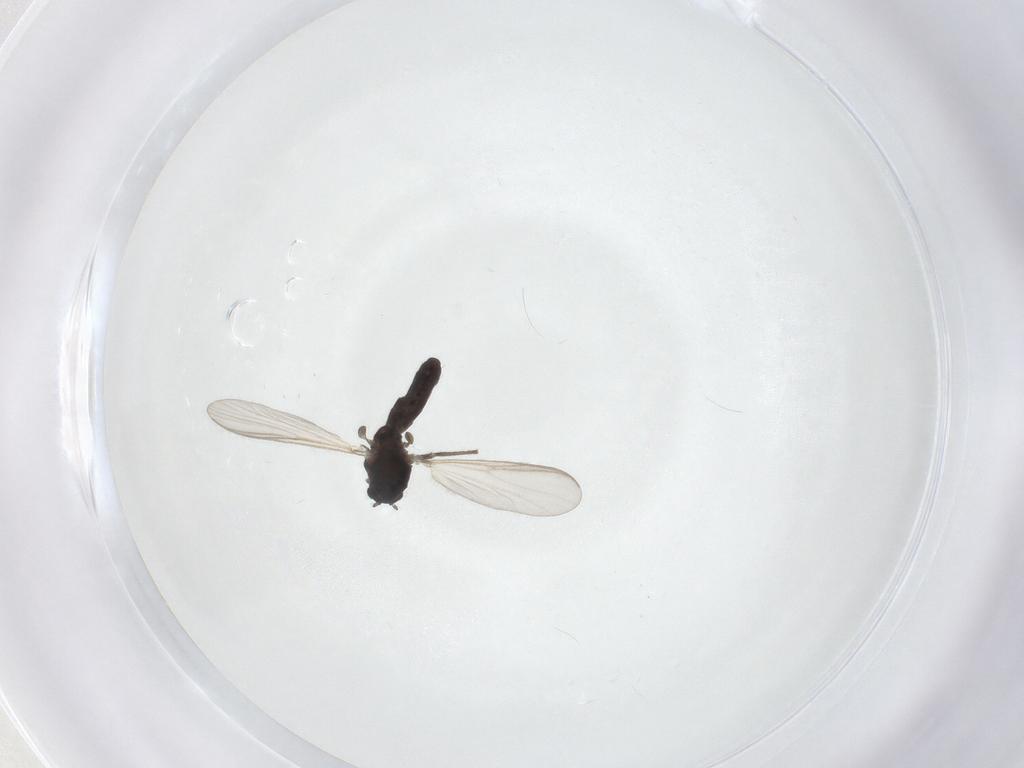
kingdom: Animalia
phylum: Arthropoda
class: Insecta
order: Diptera
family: Chironomidae
